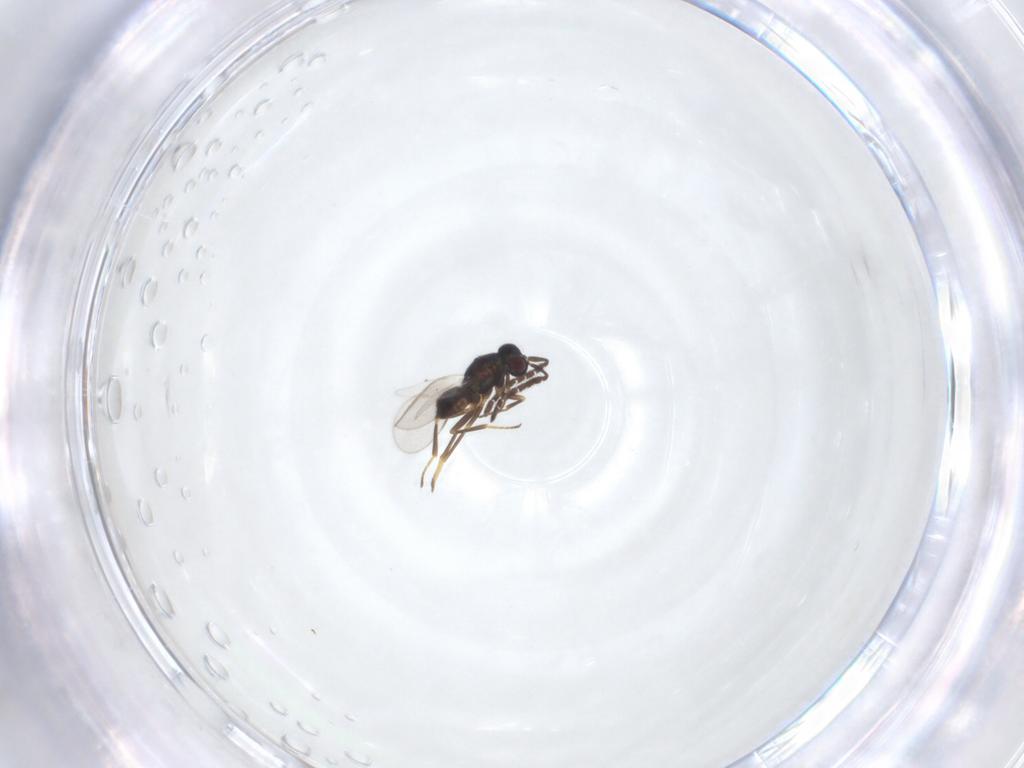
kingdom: Animalia
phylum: Arthropoda
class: Insecta
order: Hymenoptera
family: Encyrtidae
